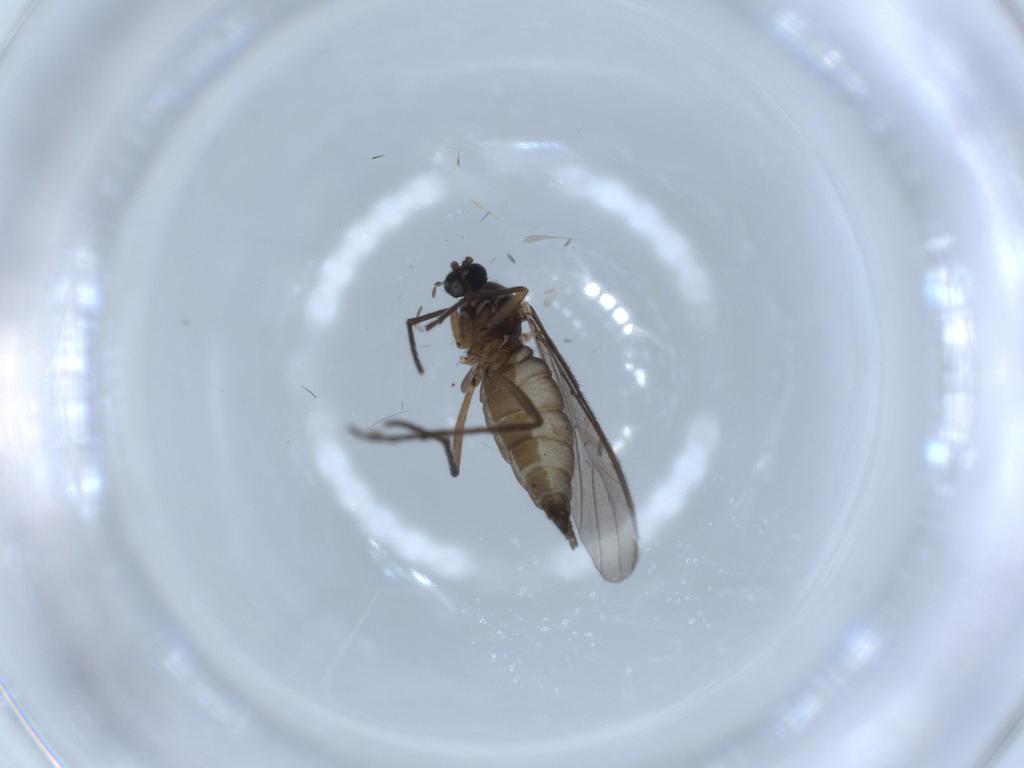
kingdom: Animalia
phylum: Arthropoda
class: Insecta
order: Diptera
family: Sciaridae
